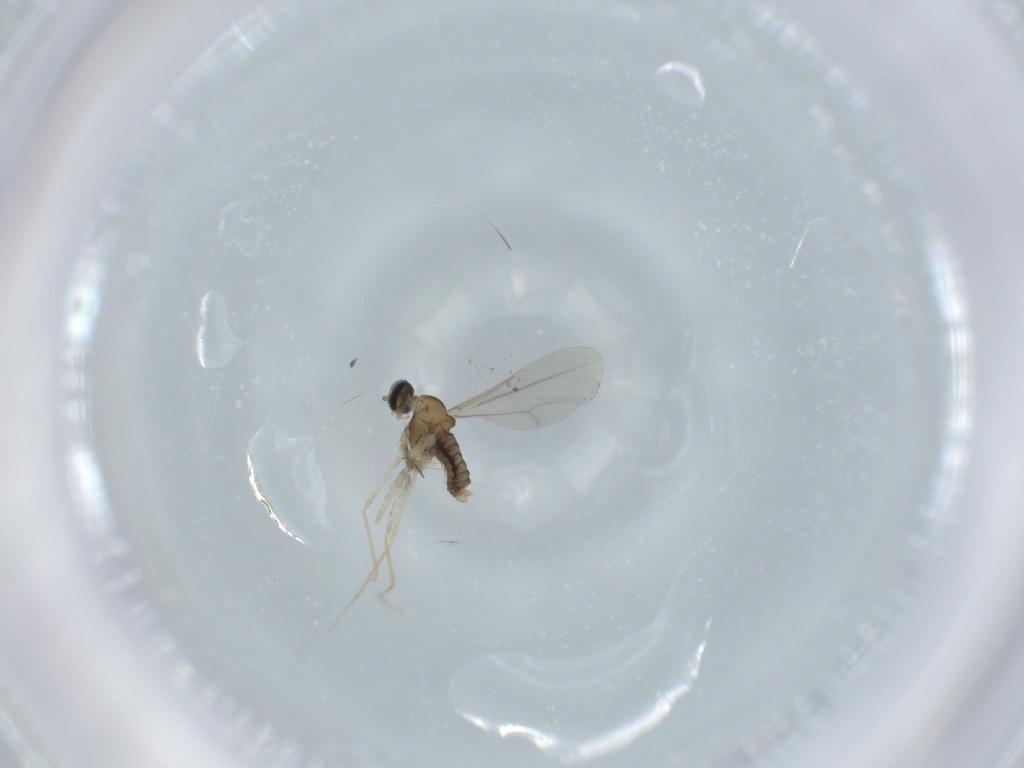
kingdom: Animalia
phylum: Arthropoda
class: Insecta
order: Diptera
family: Cecidomyiidae
